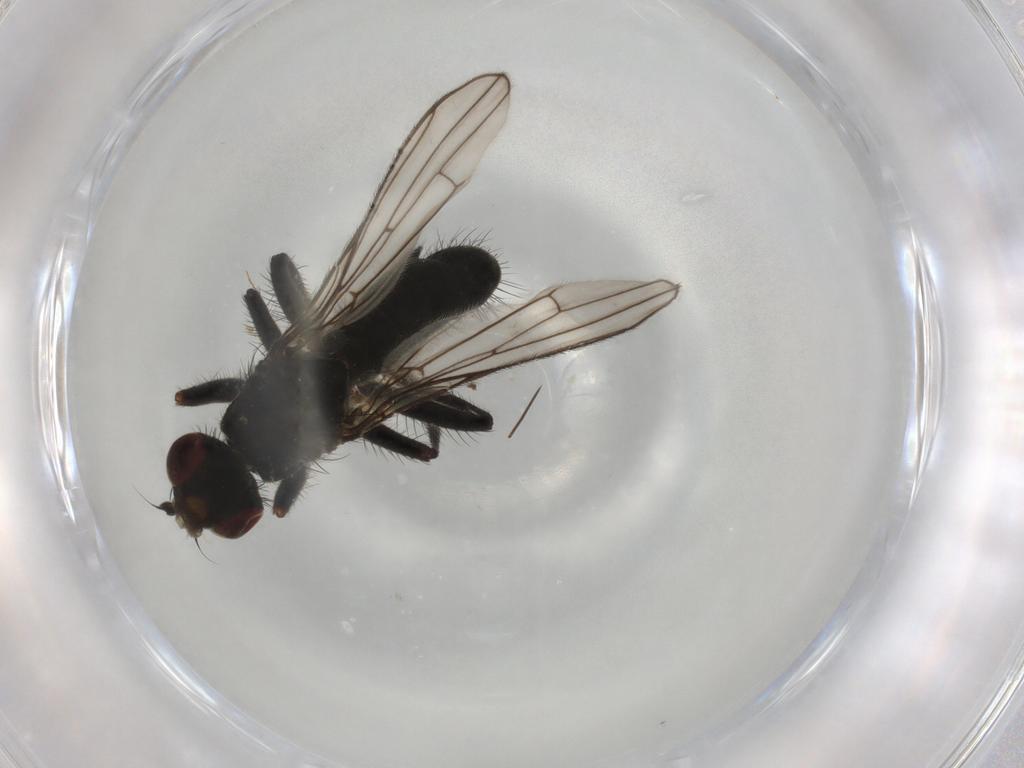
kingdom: Animalia
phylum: Arthropoda
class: Insecta
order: Diptera
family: Scathophagidae
